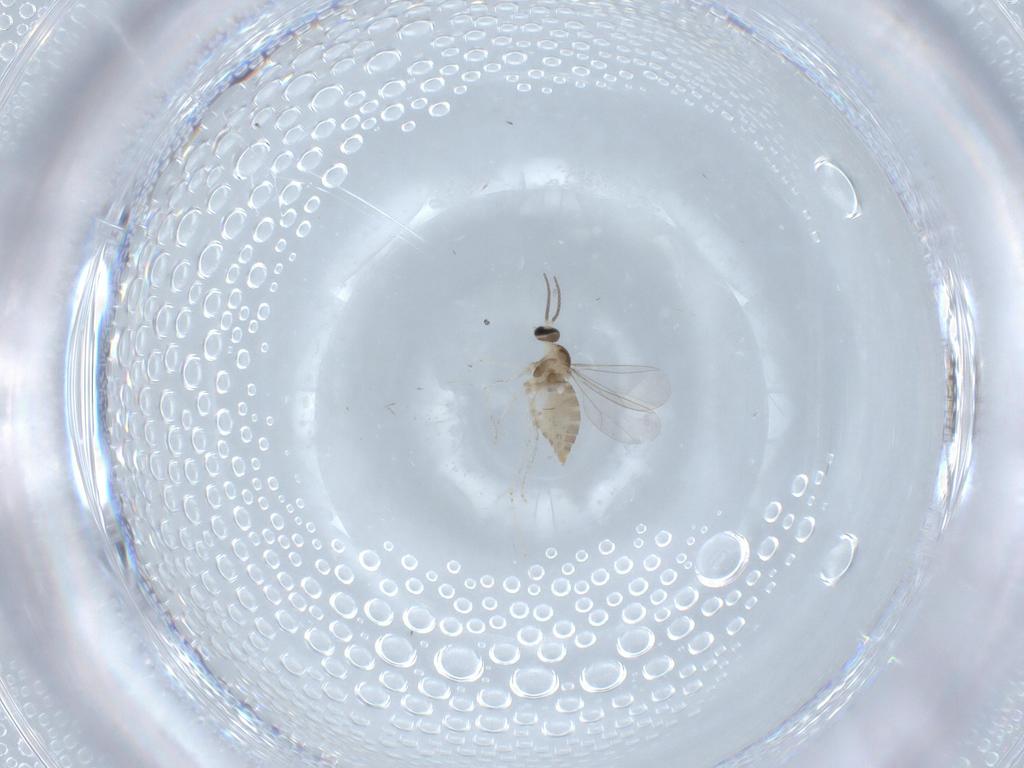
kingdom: Animalia
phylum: Arthropoda
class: Insecta
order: Diptera
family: Cecidomyiidae
